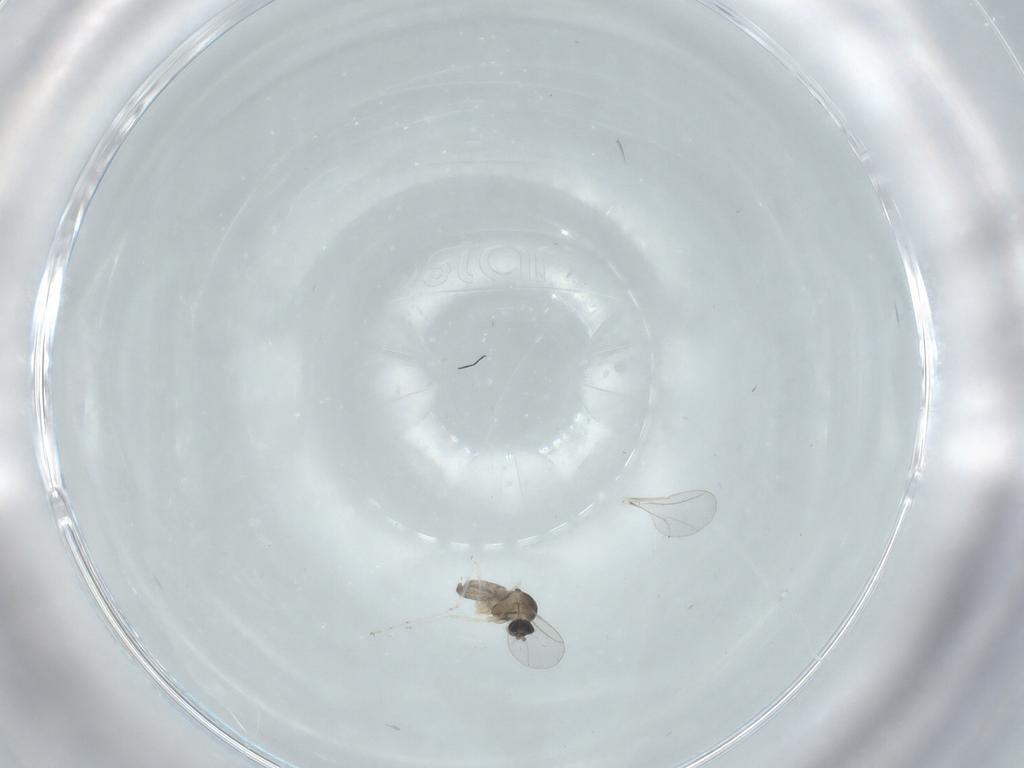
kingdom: Animalia
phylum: Arthropoda
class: Insecta
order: Diptera
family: Cecidomyiidae
